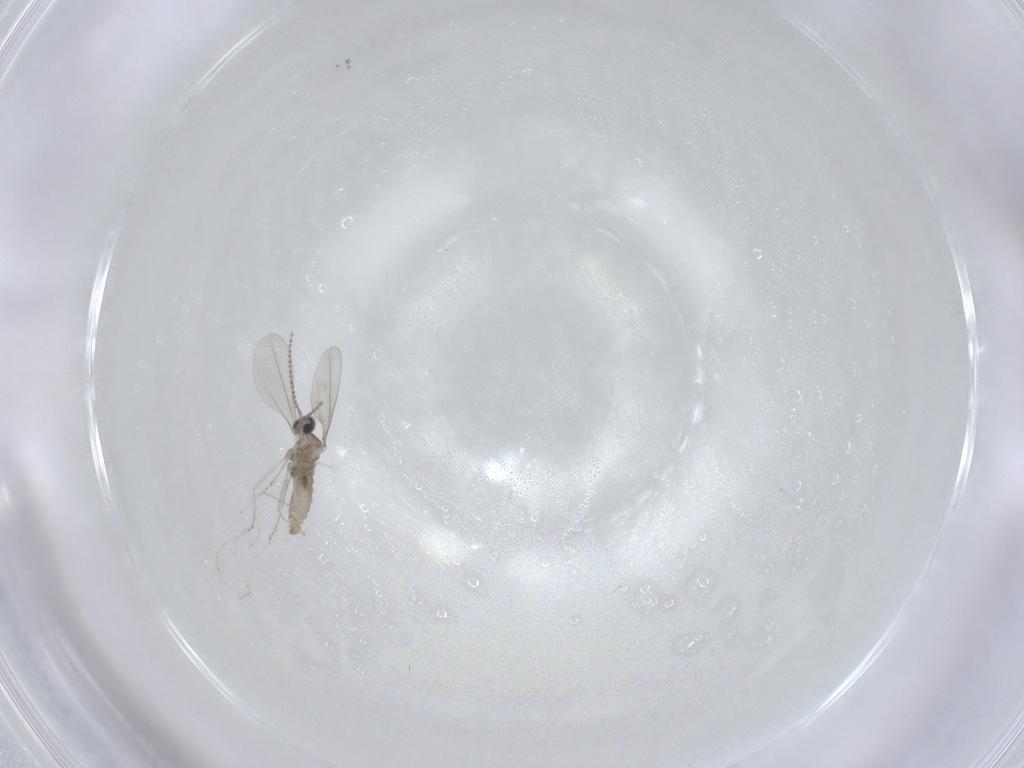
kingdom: Animalia
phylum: Arthropoda
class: Insecta
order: Diptera
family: Cecidomyiidae
